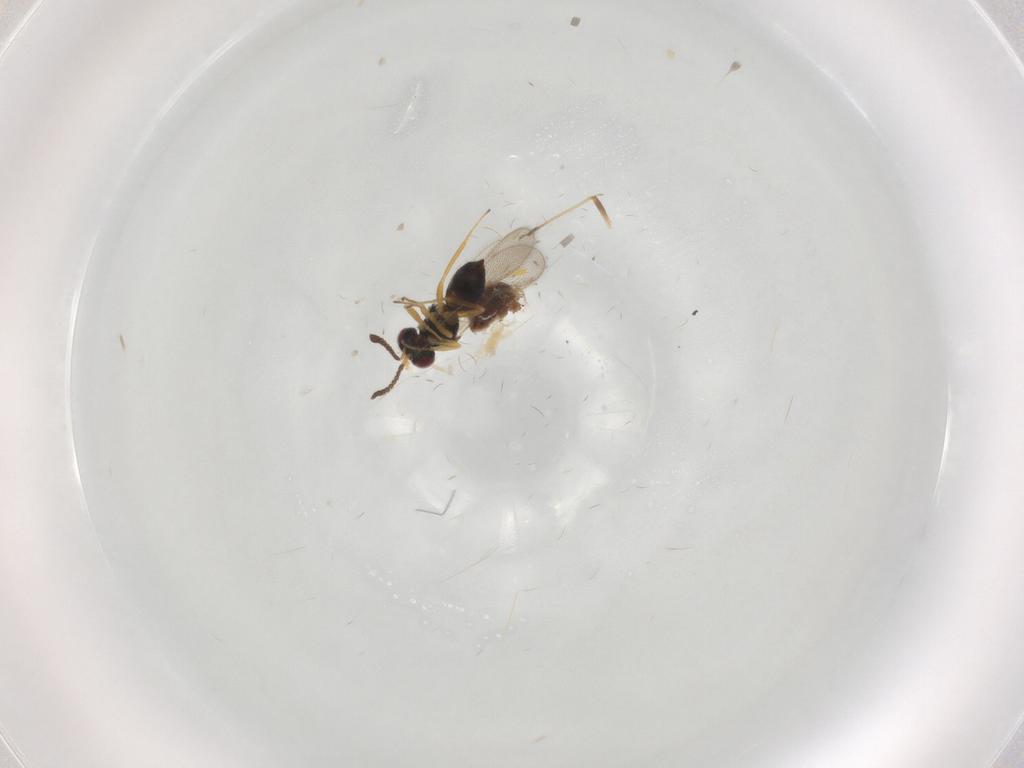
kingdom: Animalia
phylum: Arthropoda
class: Insecta
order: Hymenoptera
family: Tetracampidae
